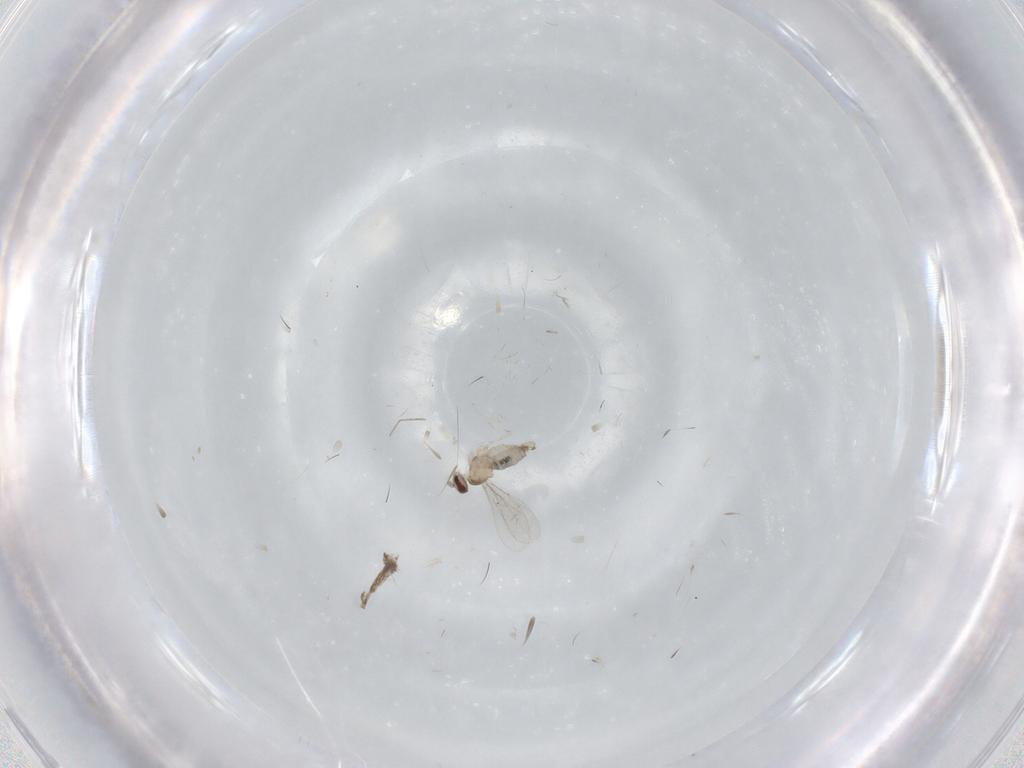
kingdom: Animalia
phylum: Arthropoda
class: Insecta
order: Diptera
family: Cecidomyiidae
